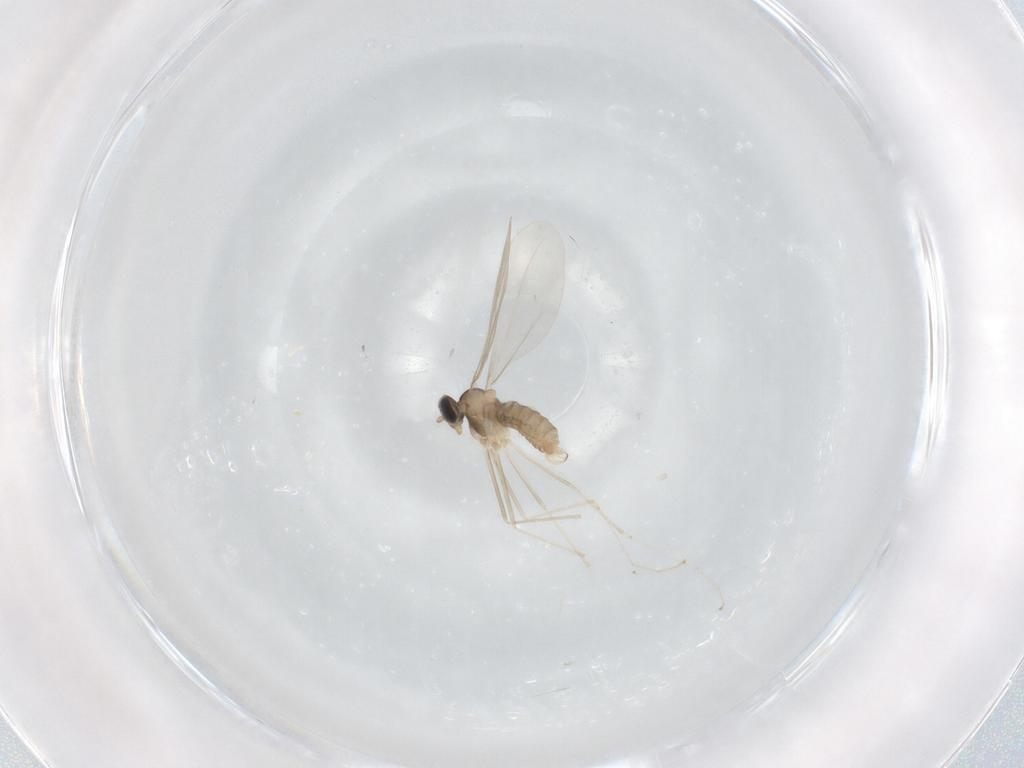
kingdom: Animalia
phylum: Arthropoda
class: Insecta
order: Diptera
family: Cecidomyiidae
